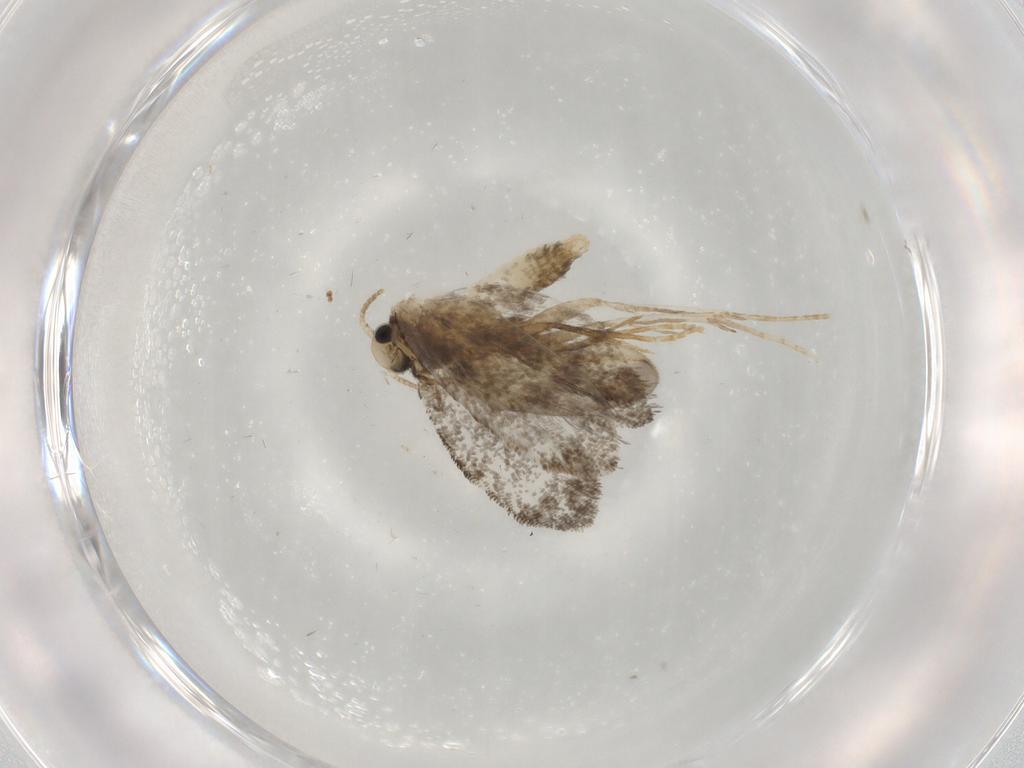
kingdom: Animalia
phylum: Arthropoda
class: Insecta
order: Lepidoptera
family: Psychidae
